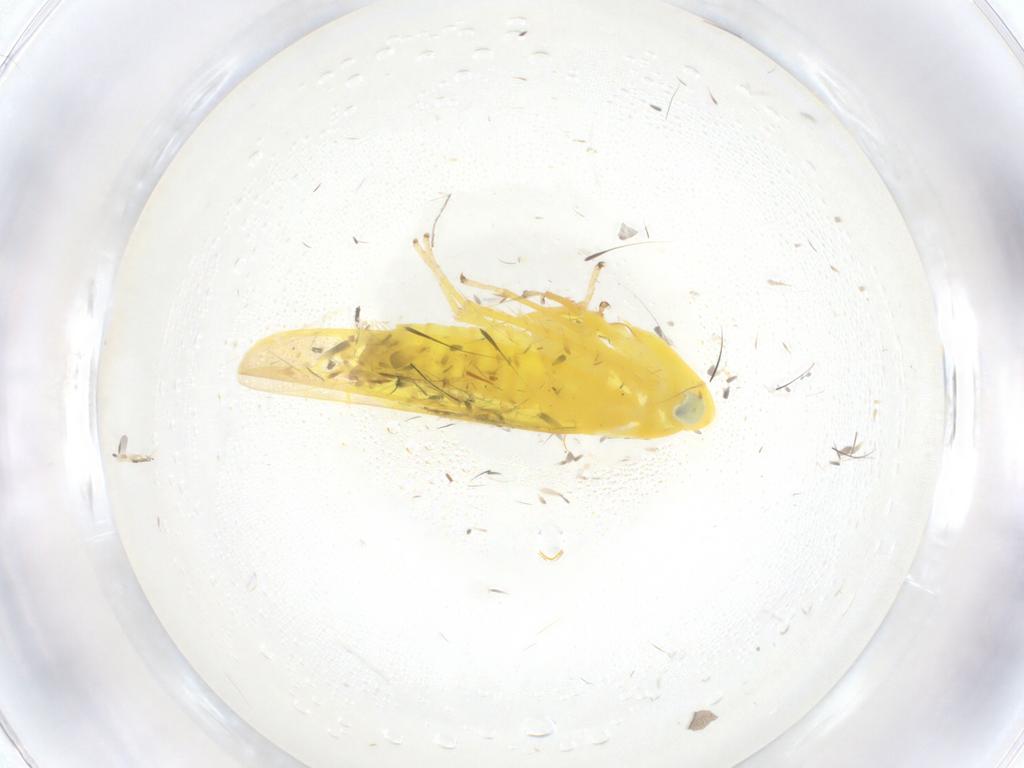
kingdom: Animalia
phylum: Arthropoda
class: Insecta
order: Hemiptera
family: Cicadellidae
